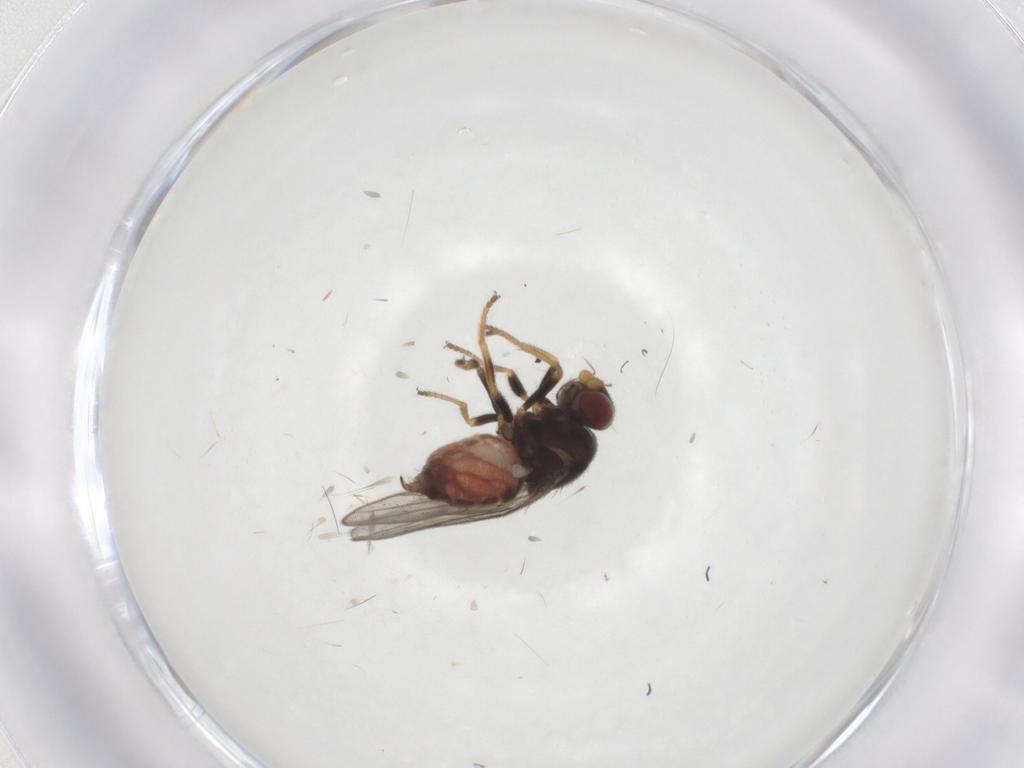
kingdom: Animalia
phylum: Arthropoda
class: Insecta
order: Diptera
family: Chloropidae
